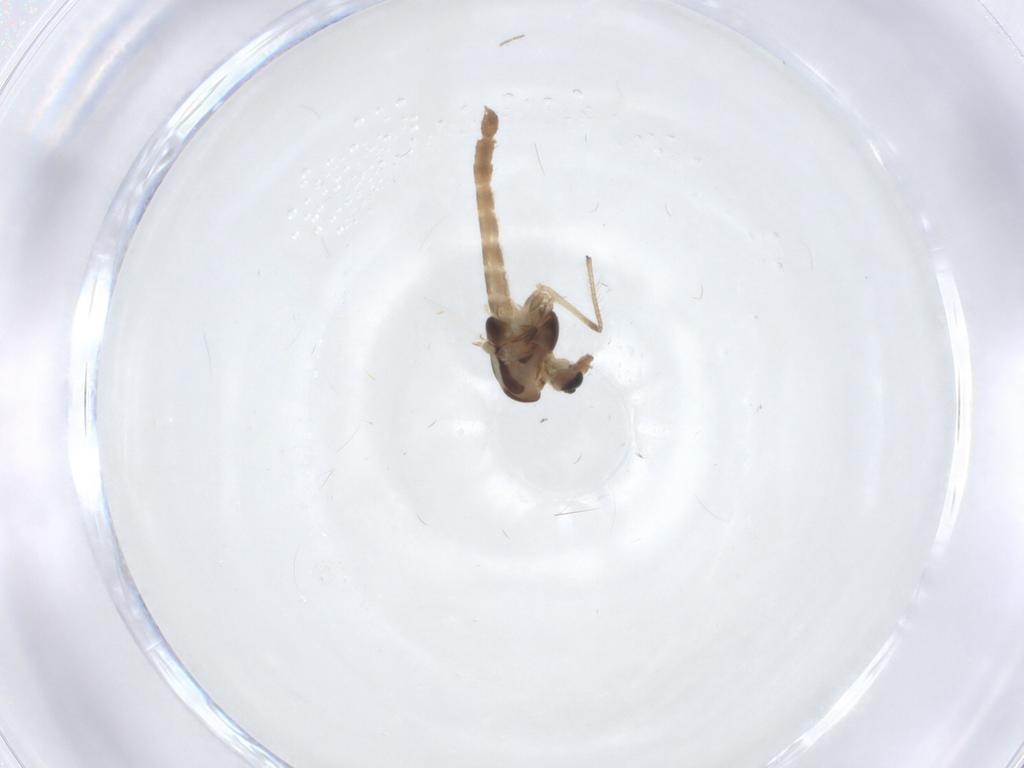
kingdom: Animalia
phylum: Arthropoda
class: Insecta
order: Diptera
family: Chironomidae
